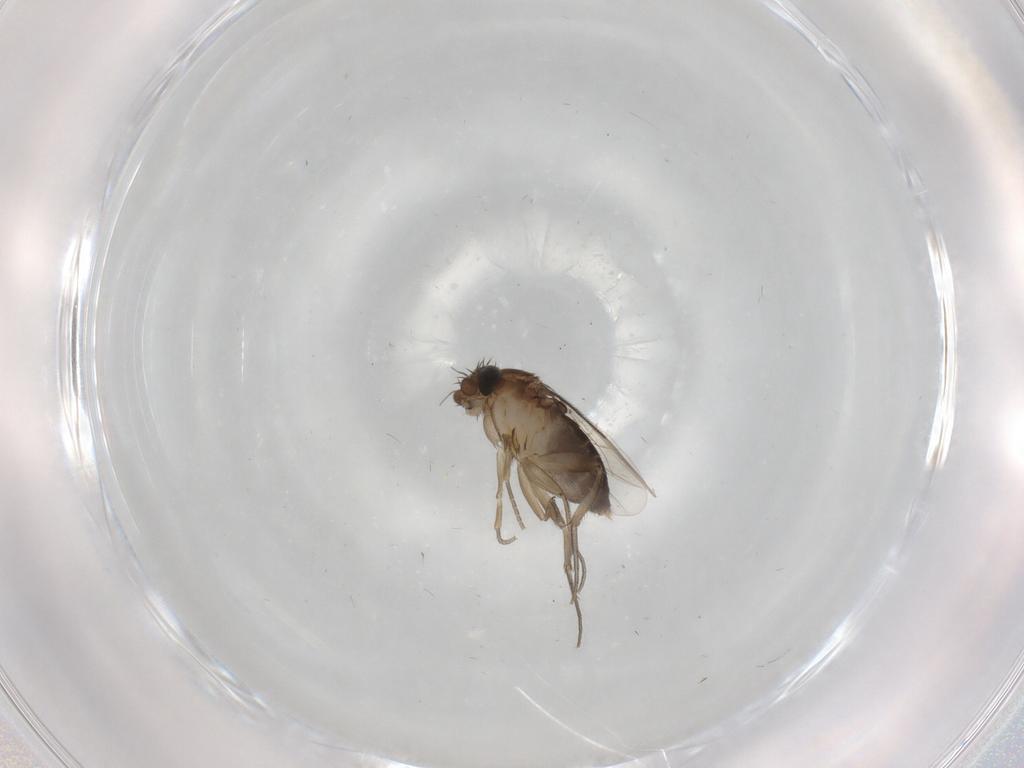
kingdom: Animalia
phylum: Arthropoda
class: Insecta
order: Diptera
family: Phoridae
